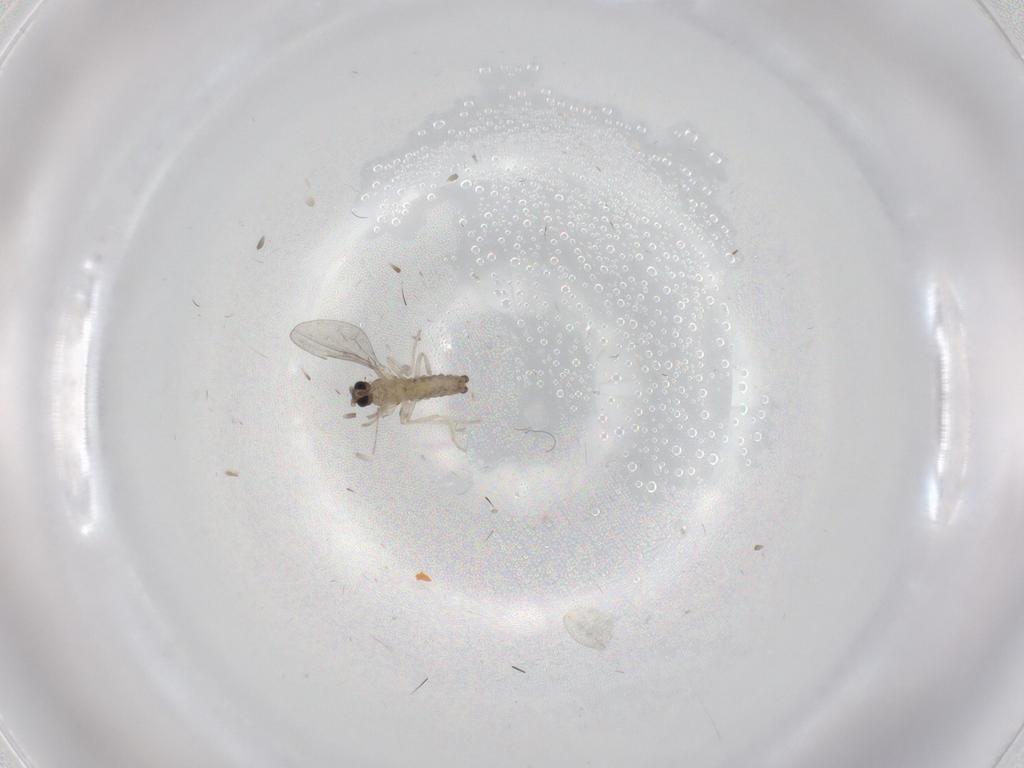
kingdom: Animalia
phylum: Arthropoda
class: Insecta
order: Diptera
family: Cecidomyiidae
